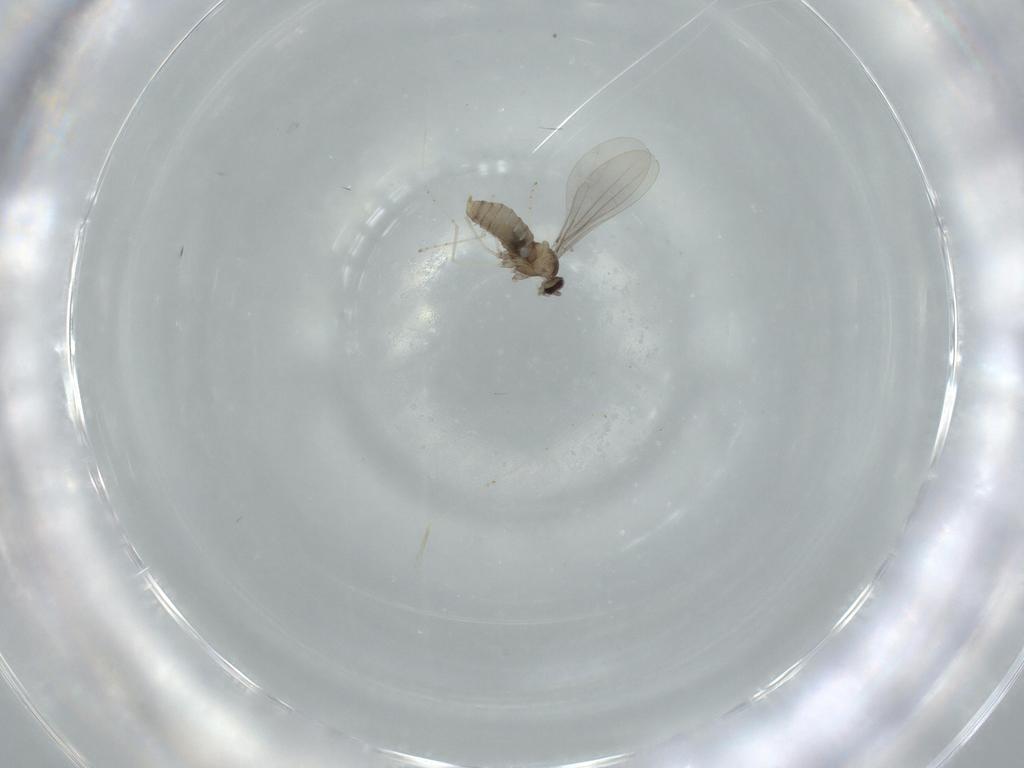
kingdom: Animalia
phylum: Arthropoda
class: Insecta
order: Diptera
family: Cecidomyiidae
